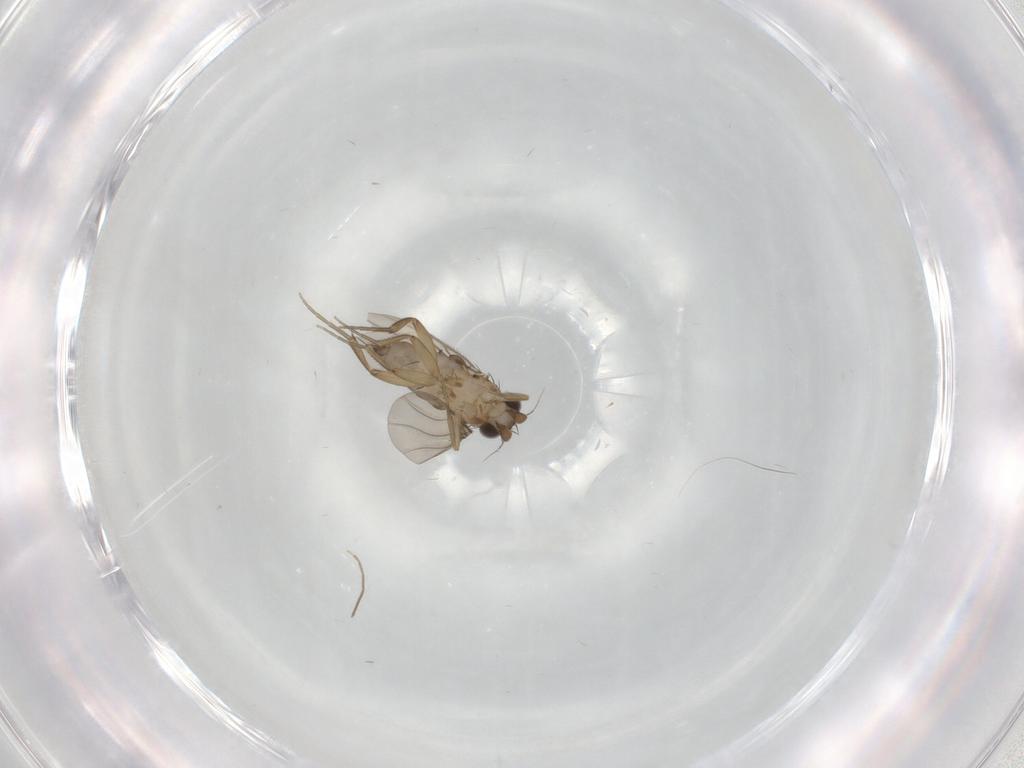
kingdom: Animalia
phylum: Arthropoda
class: Insecta
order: Diptera
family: Phoridae
